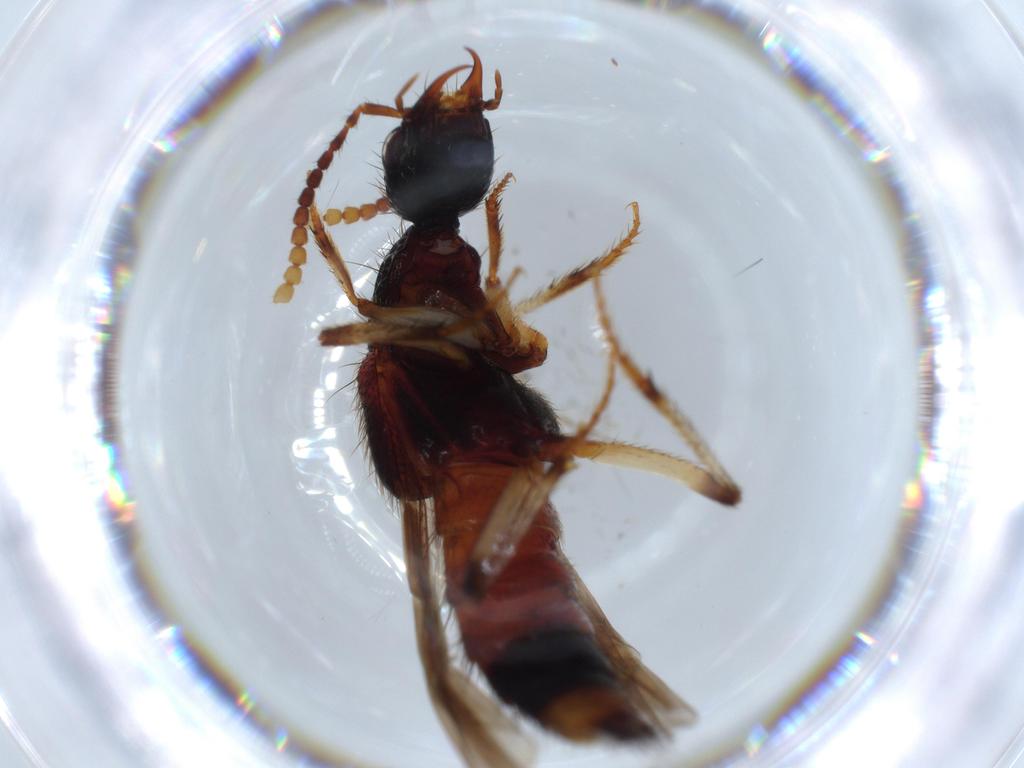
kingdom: Animalia
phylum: Arthropoda
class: Insecta
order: Coleoptera
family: Staphylinidae
